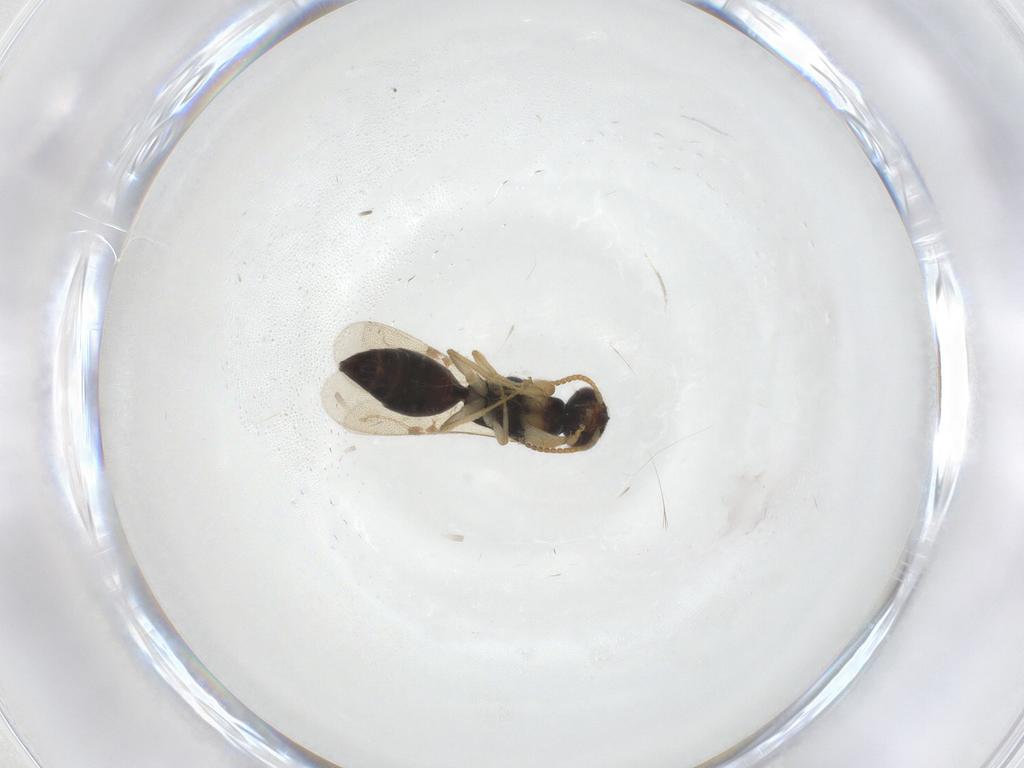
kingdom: Animalia
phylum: Arthropoda
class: Insecta
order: Hymenoptera
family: Bethylidae
